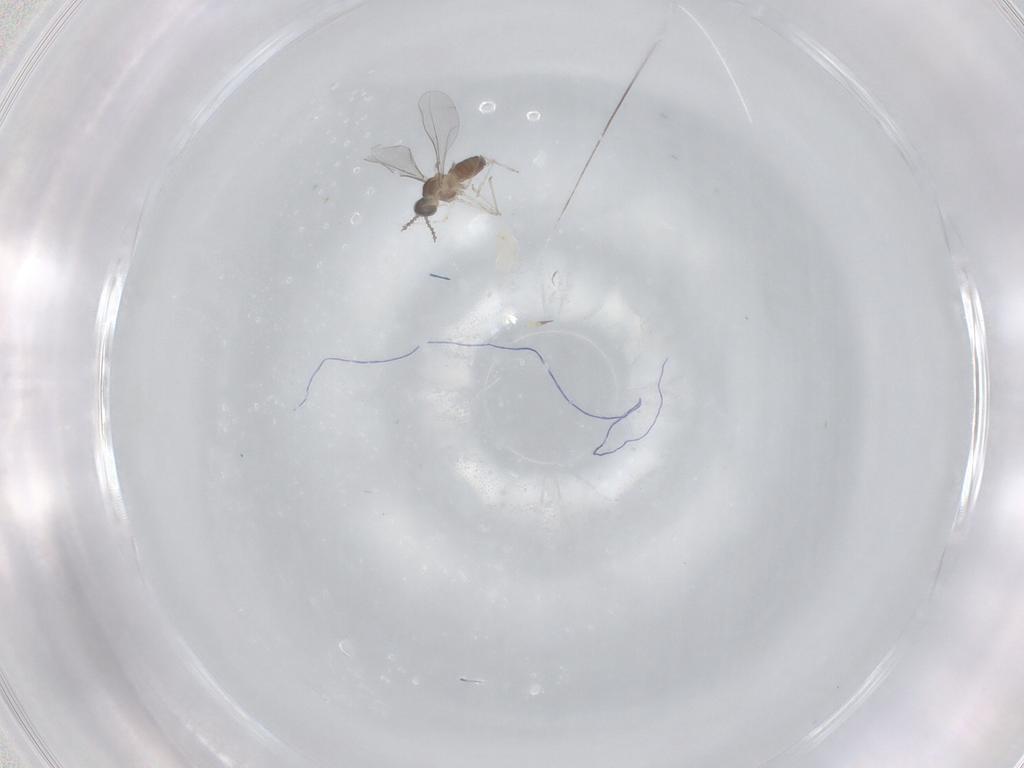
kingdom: Animalia
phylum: Arthropoda
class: Insecta
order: Diptera
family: Cecidomyiidae
